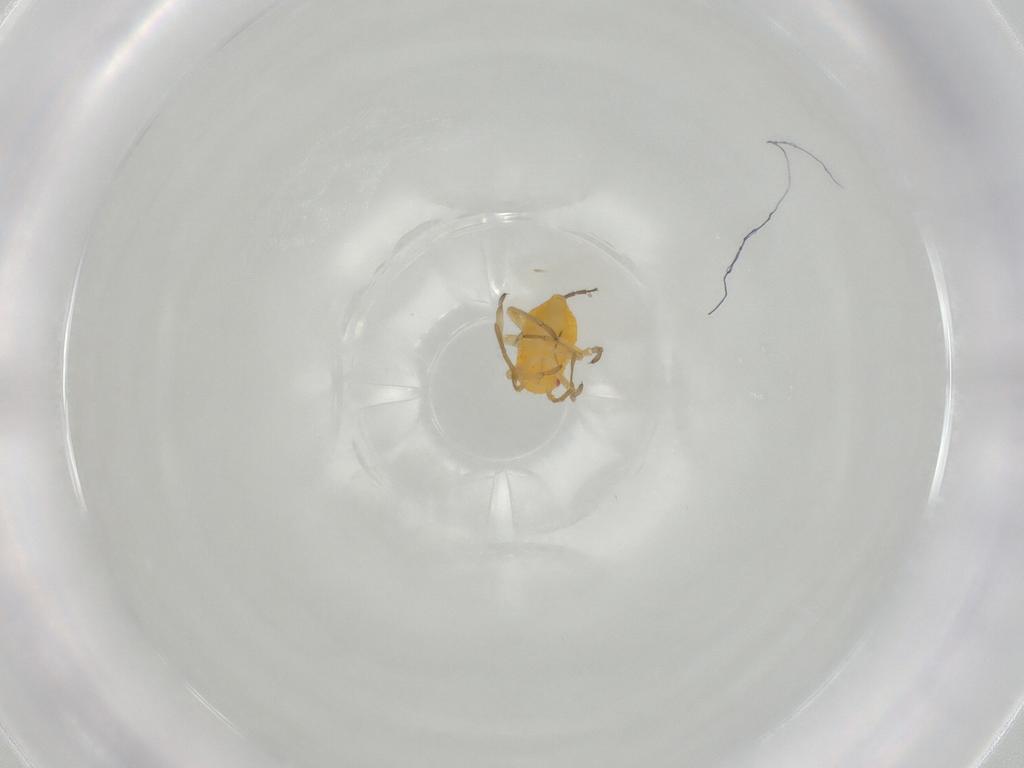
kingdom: Animalia
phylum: Arthropoda
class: Insecta
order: Hemiptera
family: Miridae
